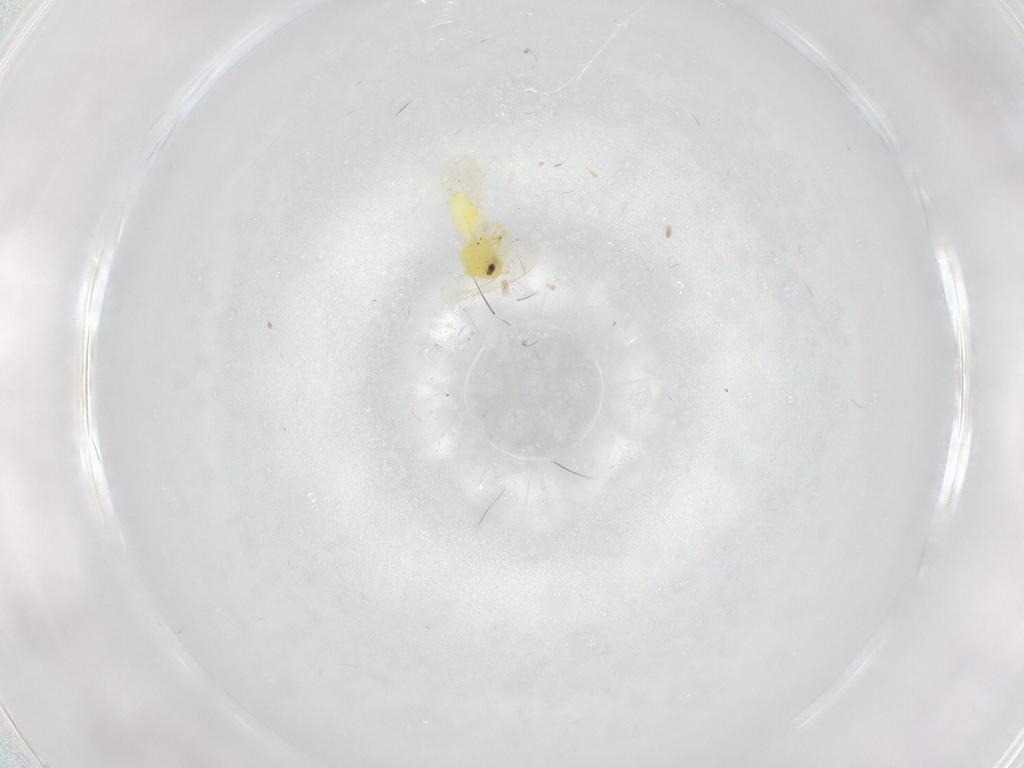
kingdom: Animalia
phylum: Arthropoda
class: Insecta
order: Hemiptera
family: Aleyrodidae
